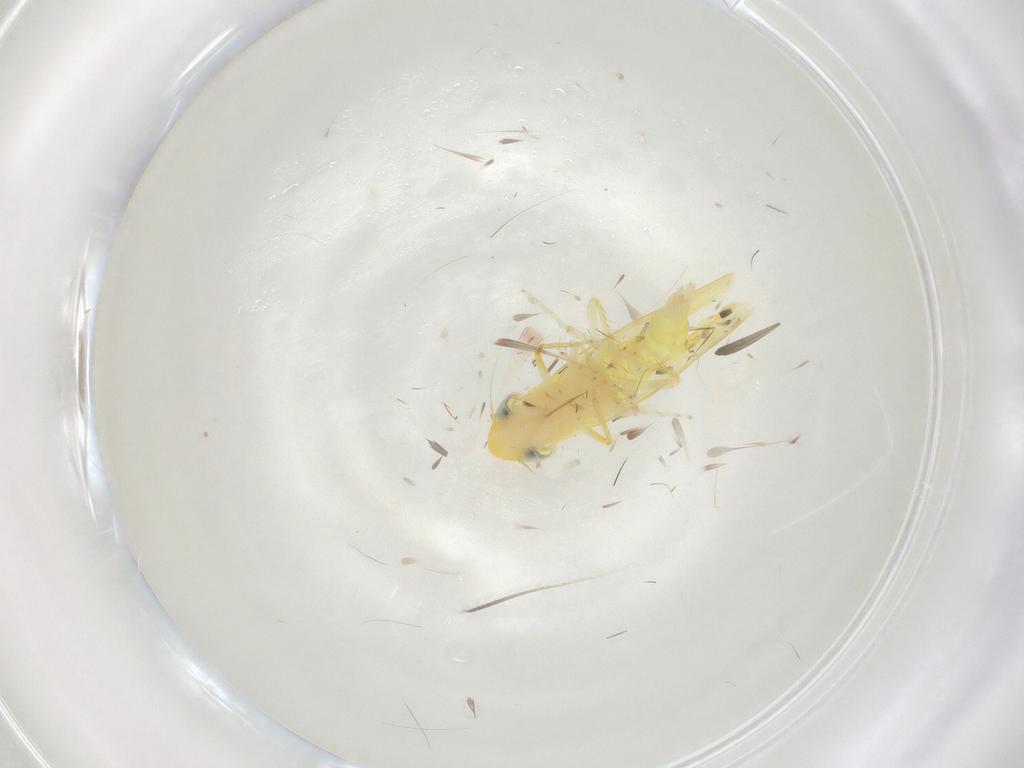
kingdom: Animalia
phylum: Arthropoda
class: Insecta
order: Hemiptera
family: Cicadellidae
